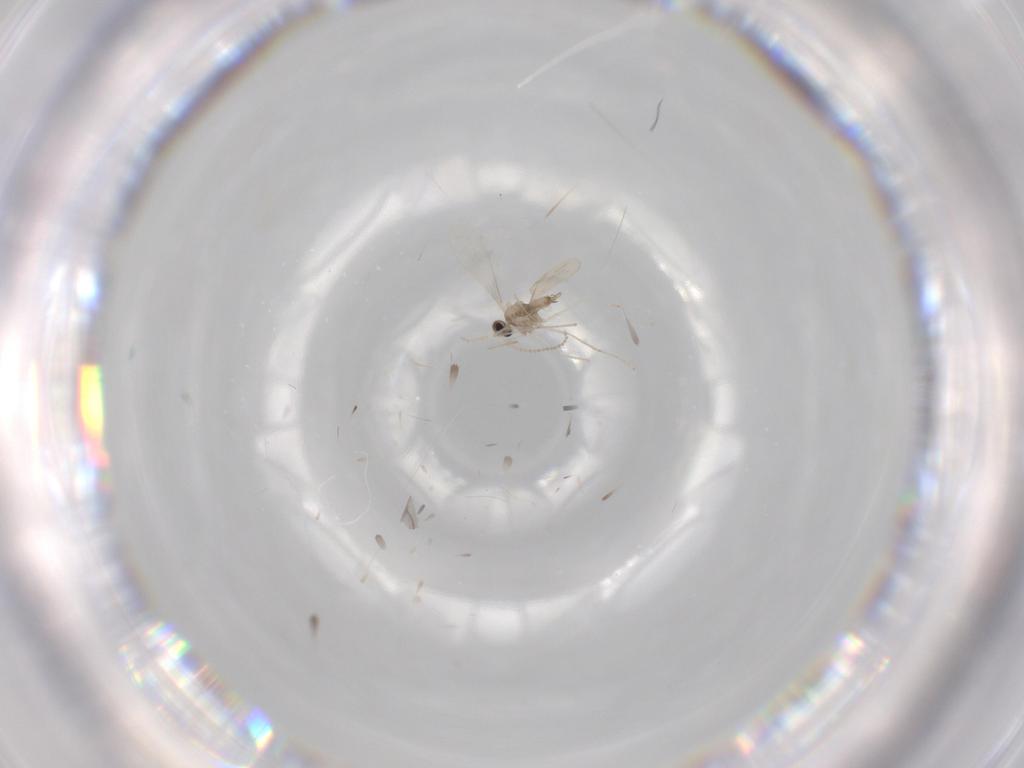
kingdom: Animalia
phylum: Arthropoda
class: Insecta
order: Diptera
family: Cecidomyiidae
